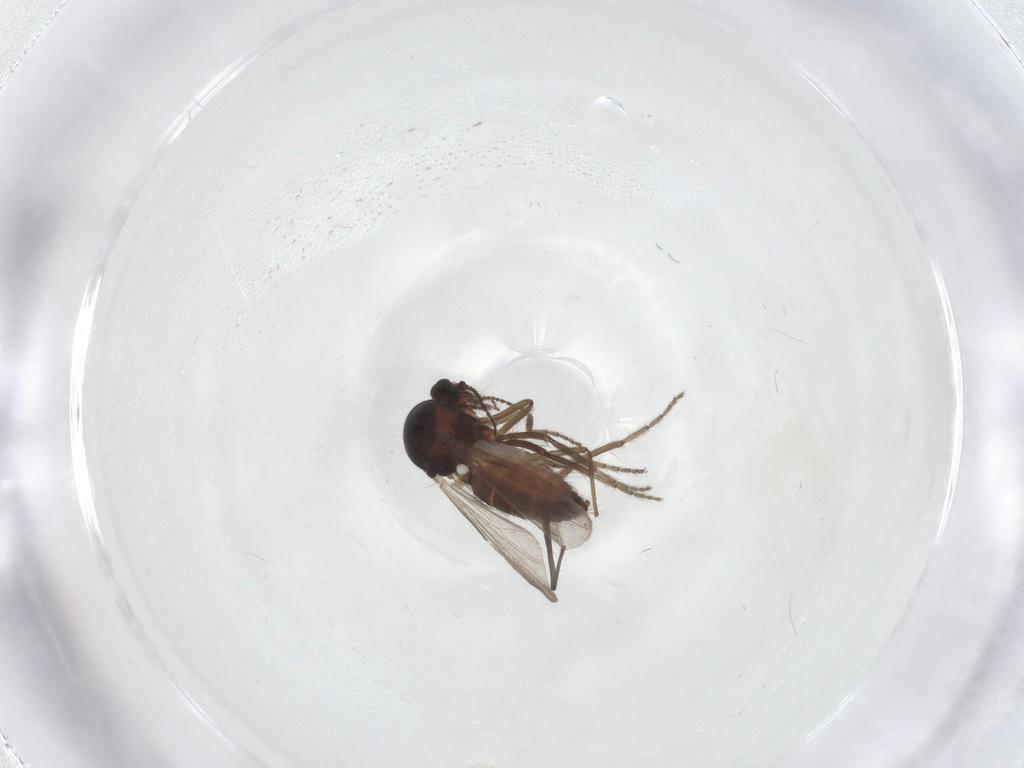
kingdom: Animalia
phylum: Arthropoda
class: Insecta
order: Diptera
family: Ceratopogonidae
